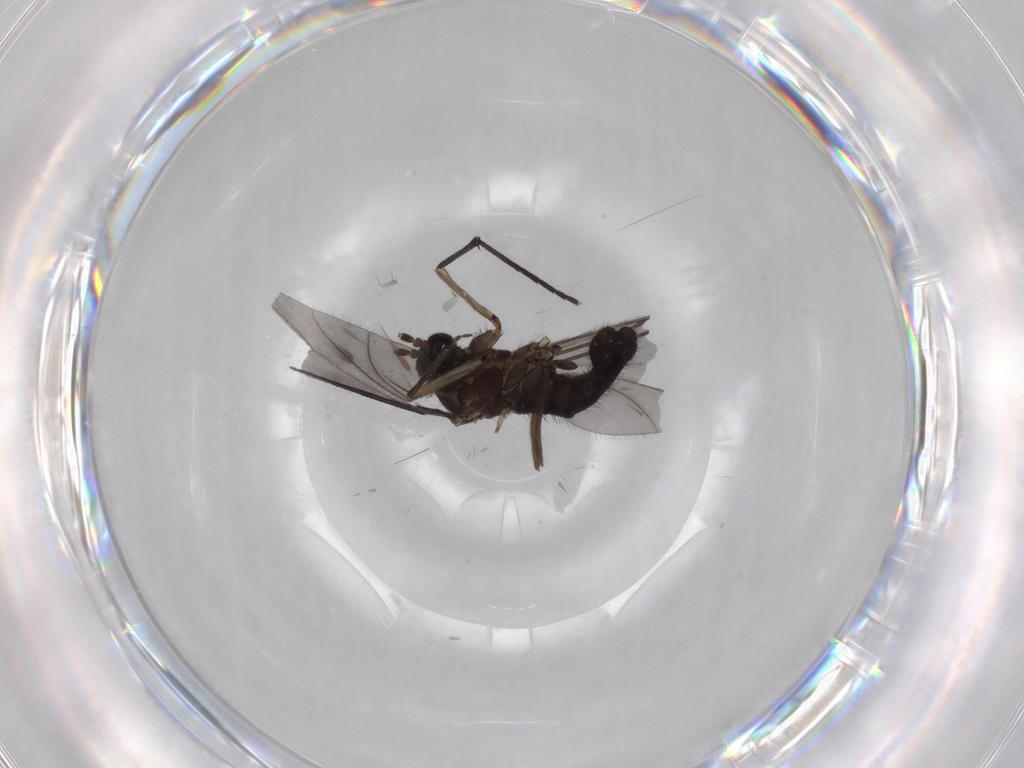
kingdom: Animalia
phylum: Arthropoda
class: Insecta
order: Diptera
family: Sciaridae
